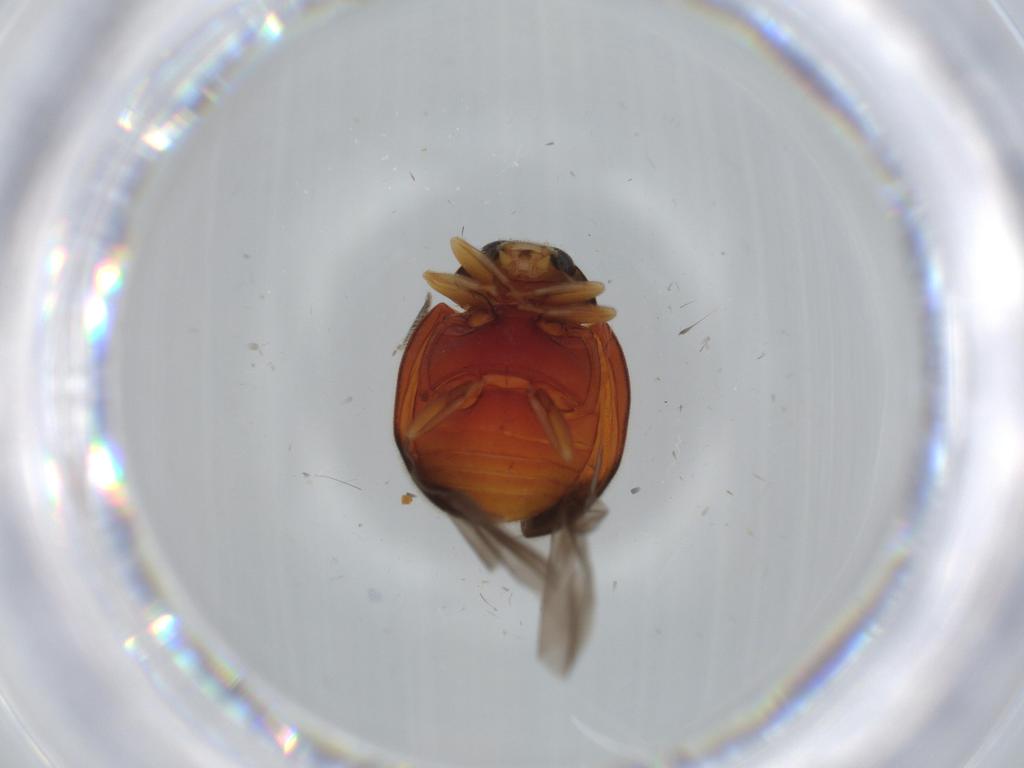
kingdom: Animalia
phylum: Arthropoda
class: Insecta
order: Coleoptera
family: Coccinellidae
